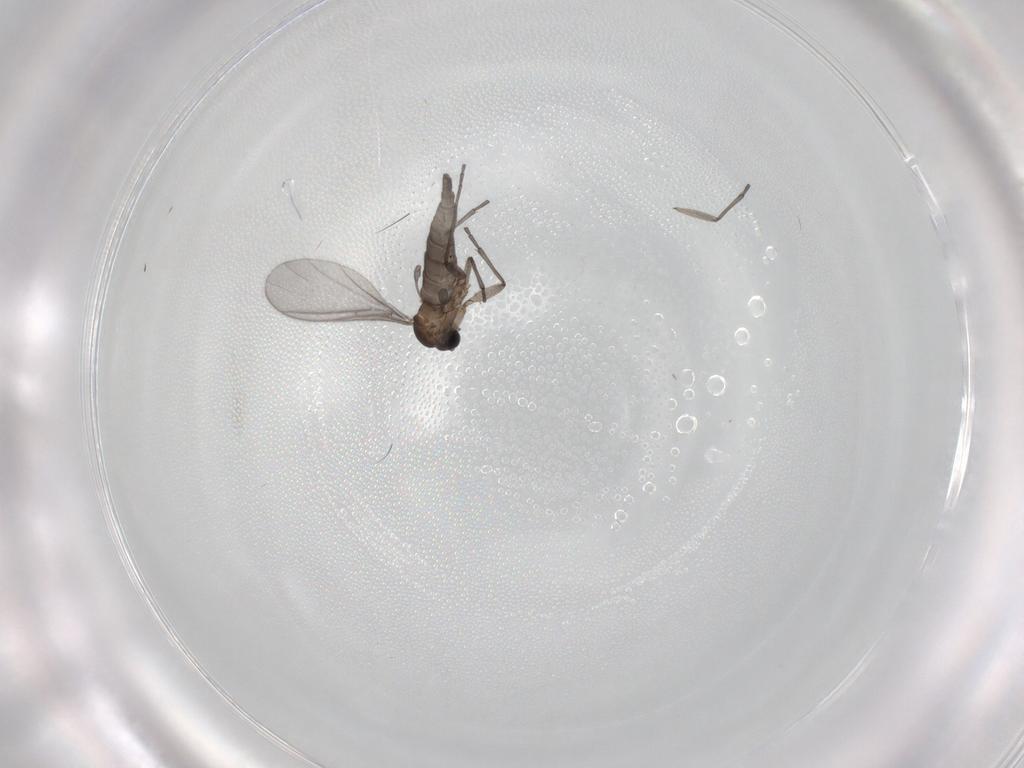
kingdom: Animalia
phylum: Arthropoda
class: Insecta
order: Diptera
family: Sciaridae
